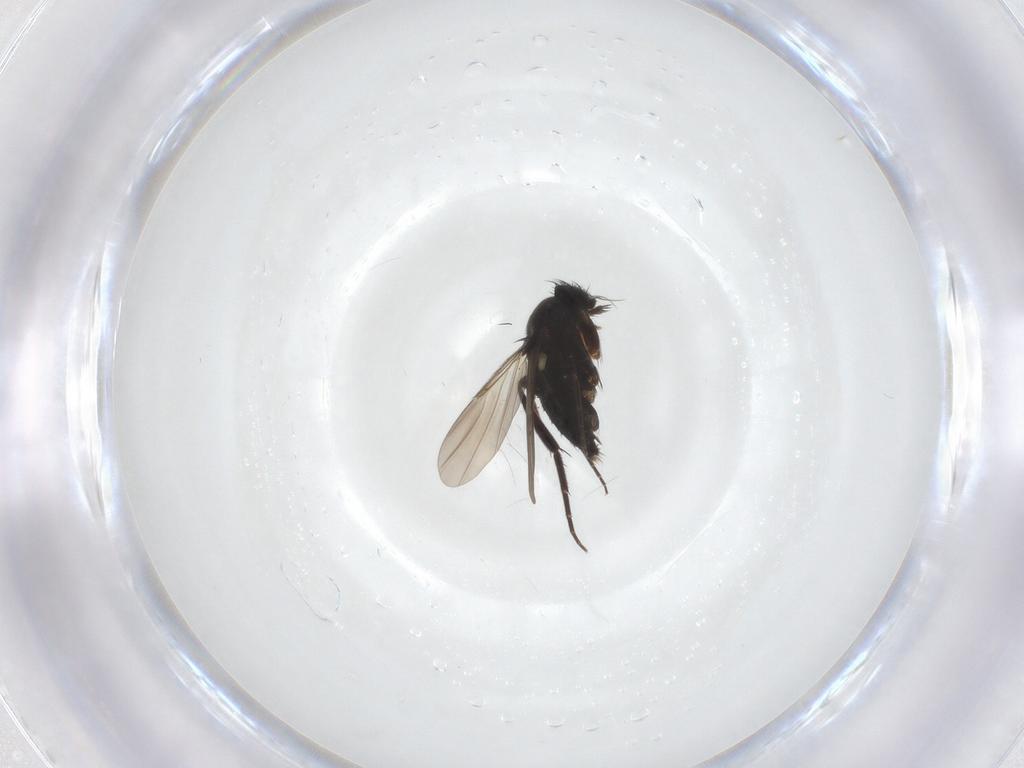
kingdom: Animalia
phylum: Arthropoda
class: Insecta
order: Diptera
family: Phoridae
